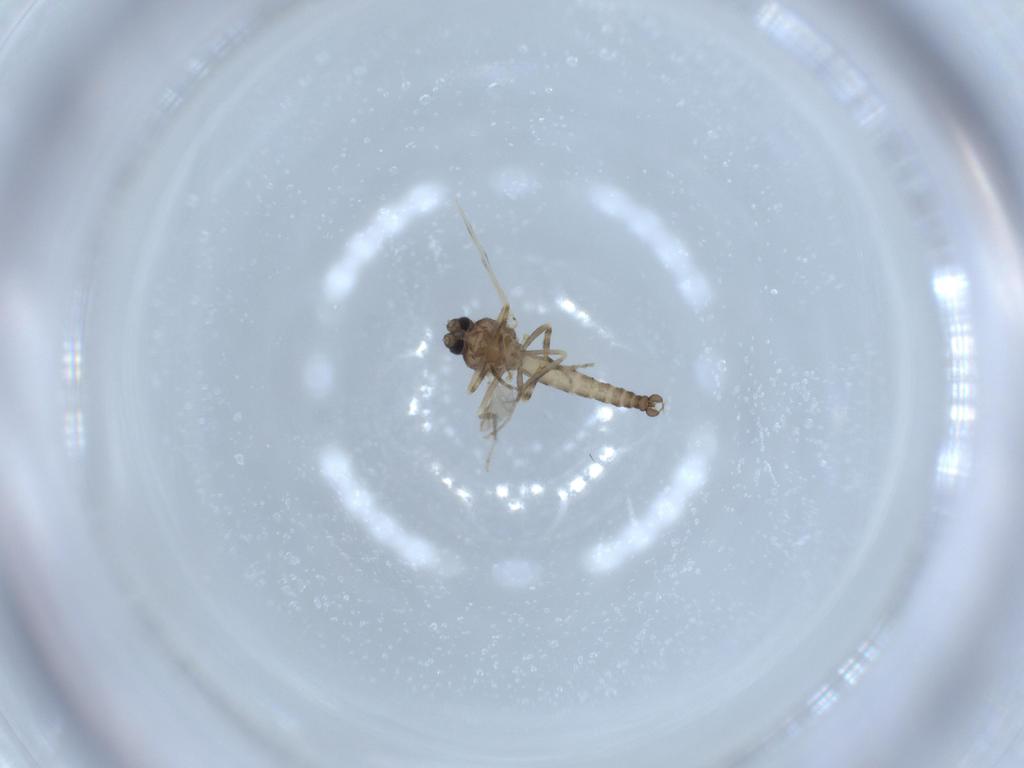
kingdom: Animalia
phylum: Arthropoda
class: Insecta
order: Diptera
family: Ceratopogonidae
